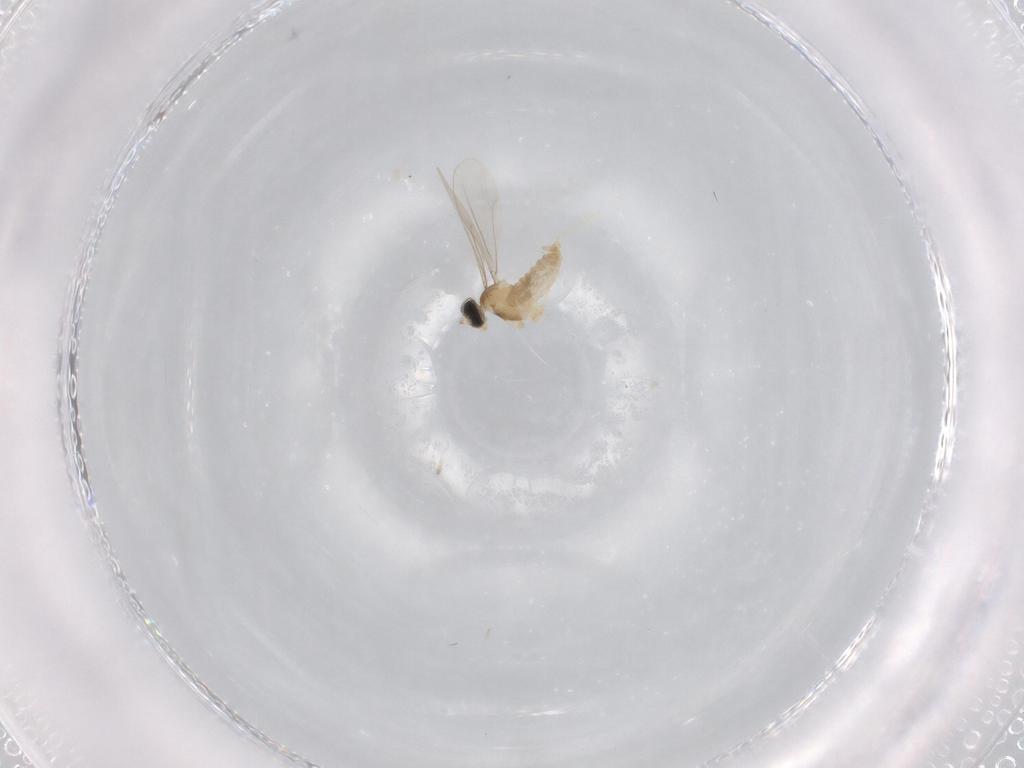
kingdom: Animalia
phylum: Arthropoda
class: Insecta
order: Diptera
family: Cecidomyiidae
